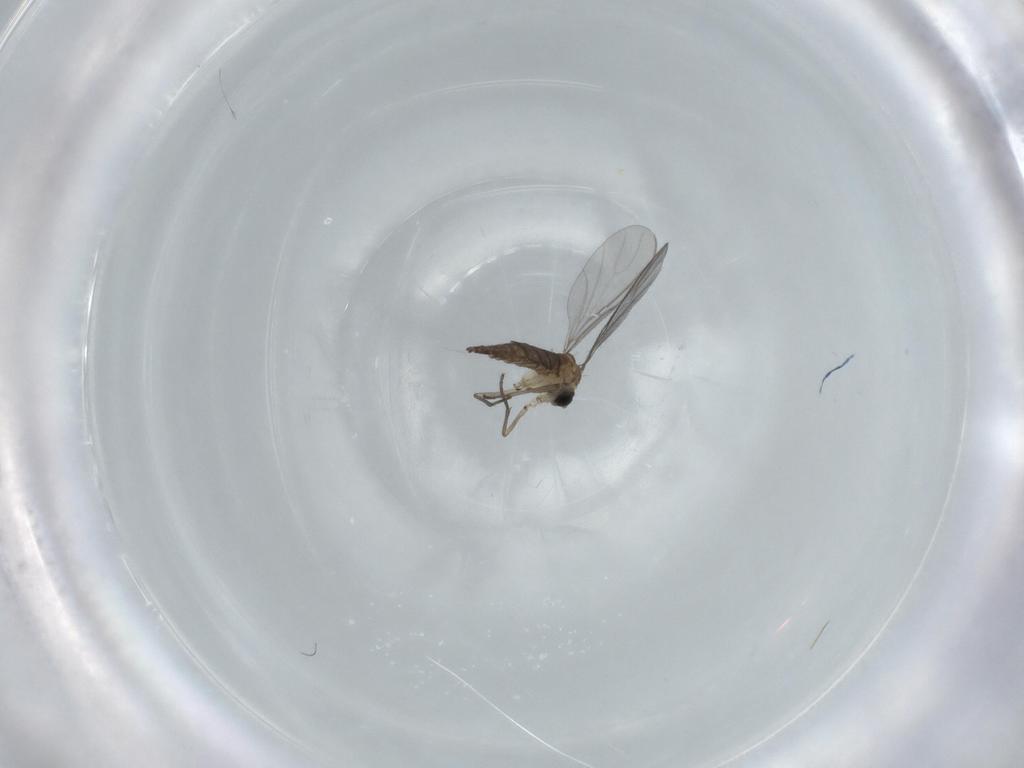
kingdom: Animalia
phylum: Arthropoda
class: Insecta
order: Diptera
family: Sciaridae
